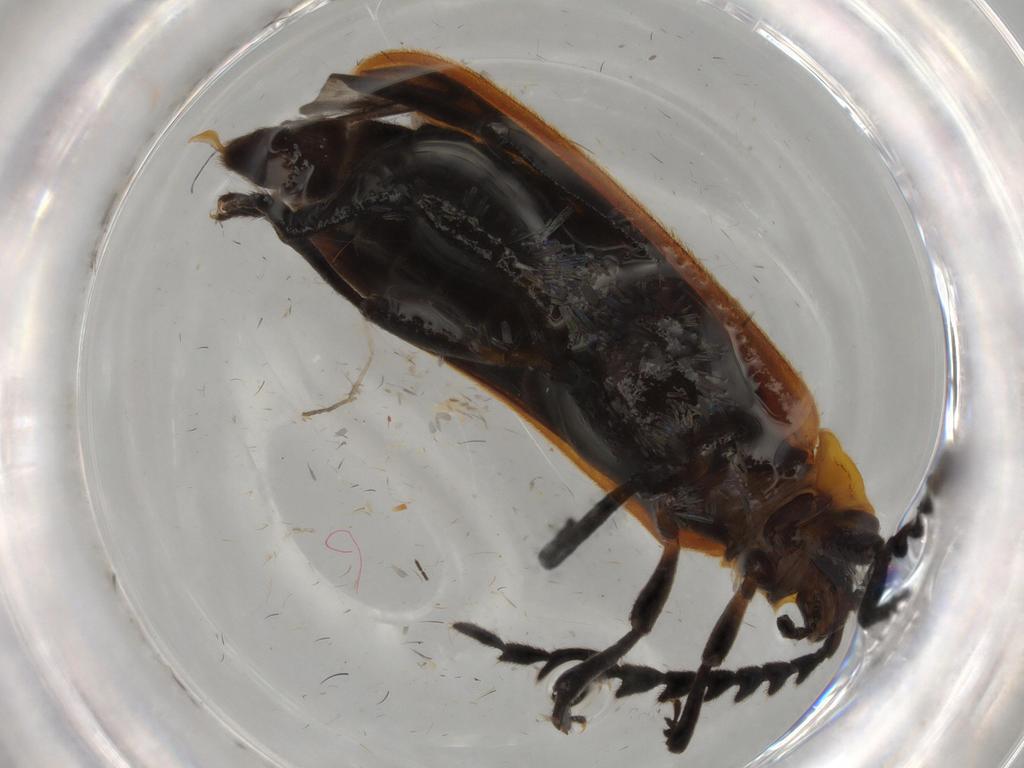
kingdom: Animalia
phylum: Arthropoda
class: Insecta
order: Coleoptera
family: Lycidae
